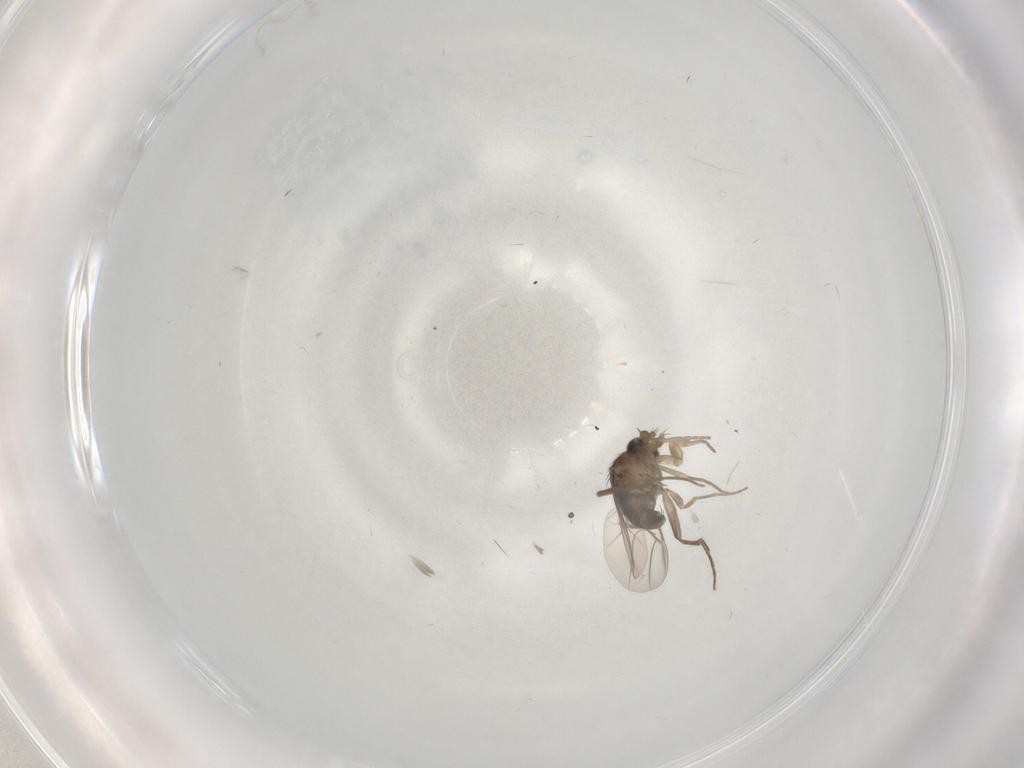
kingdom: Animalia
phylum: Arthropoda
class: Insecta
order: Diptera
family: Phoridae
